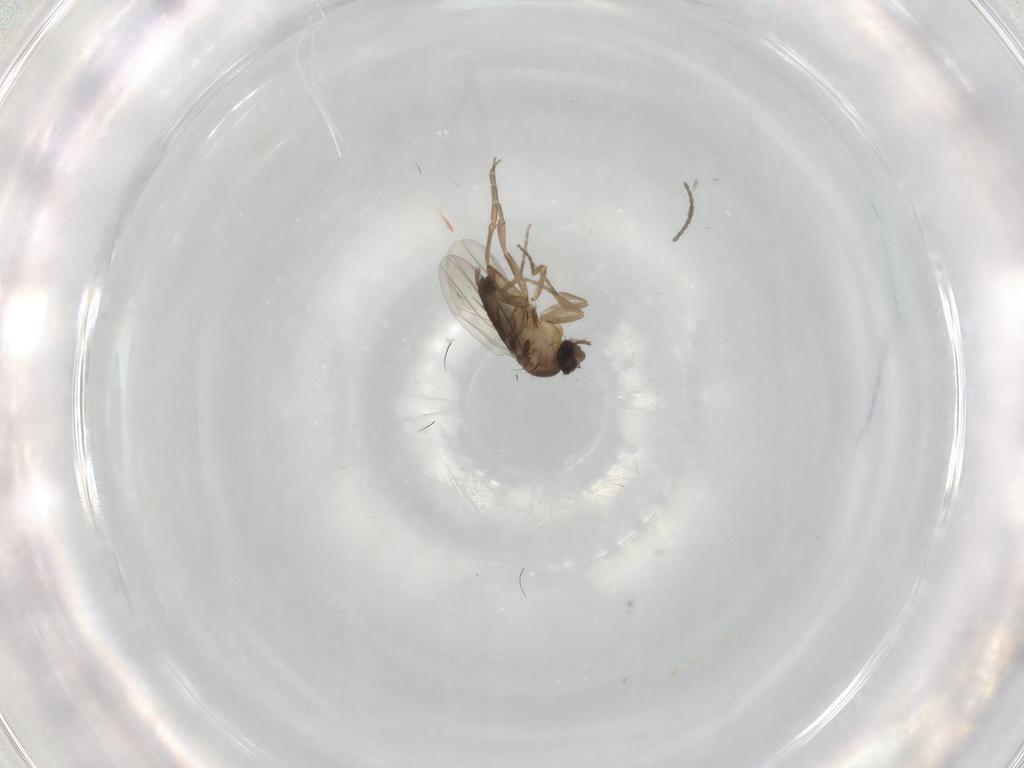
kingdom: Animalia
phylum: Arthropoda
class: Insecta
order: Diptera
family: Phoridae
